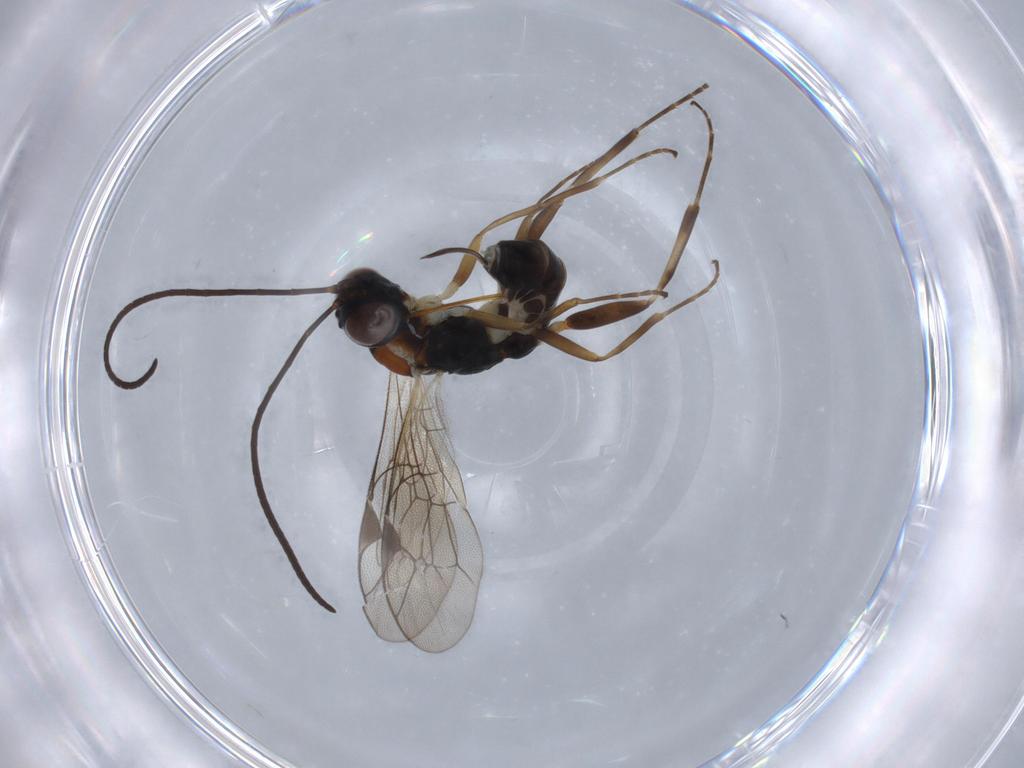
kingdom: Animalia
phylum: Arthropoda
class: Insecta
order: Hymenoptera
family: Ichneumonidae
